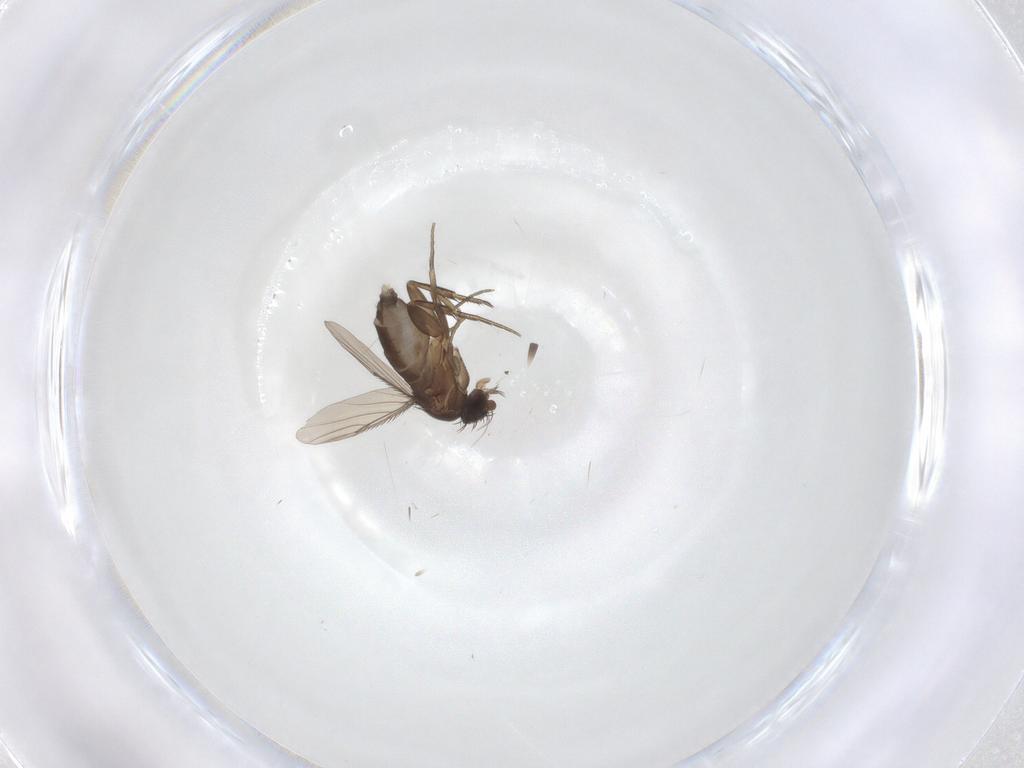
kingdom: Animalia
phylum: Arthropoda
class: Insecta
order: Diptera
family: Phoridae
